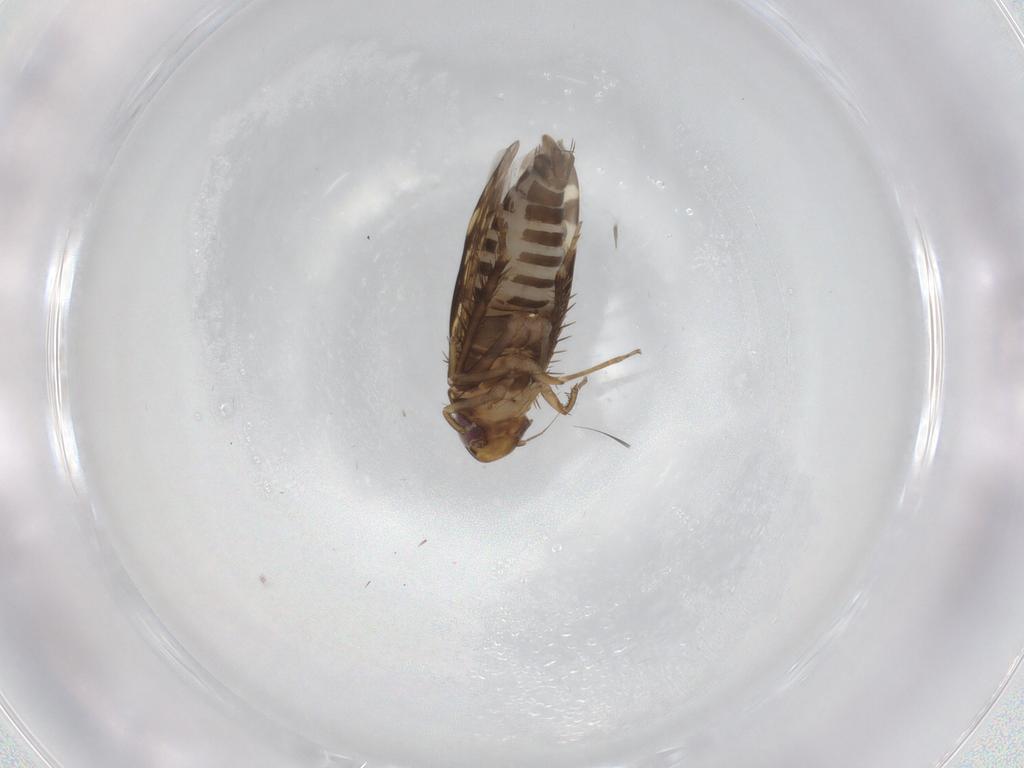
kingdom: Animalia
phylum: Arthropoda
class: Insecta
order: Hemiptera
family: Cicadellidae
